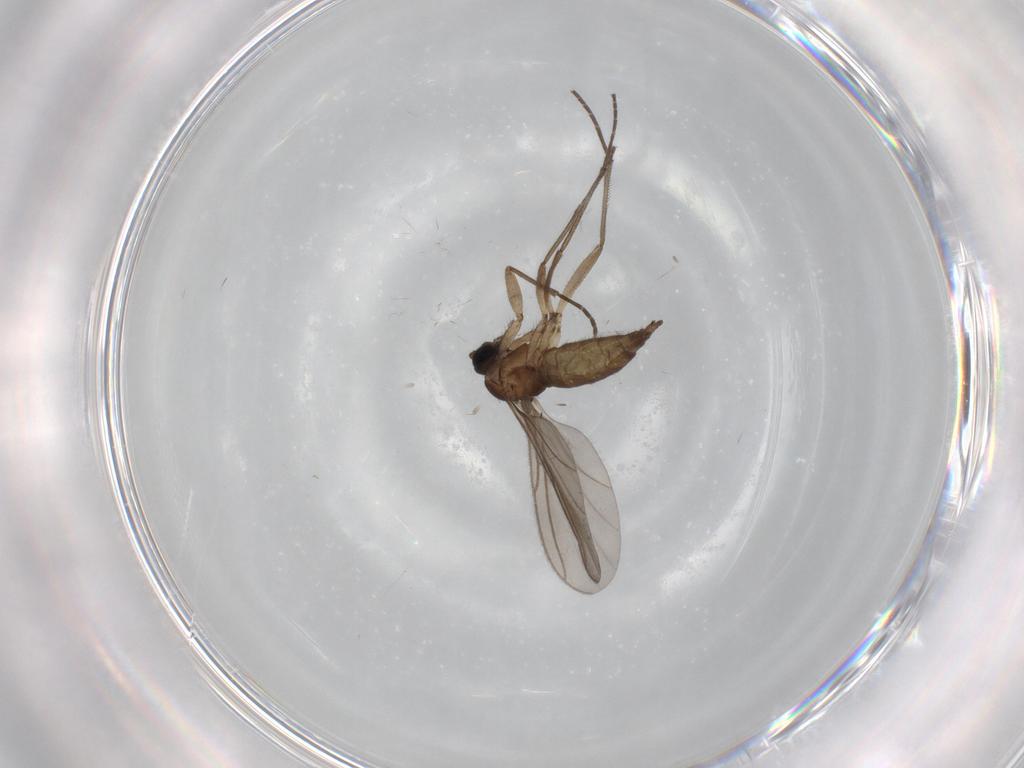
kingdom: Animalia
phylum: Arthropoda
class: Insecta
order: Diptera
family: Sciaridae
